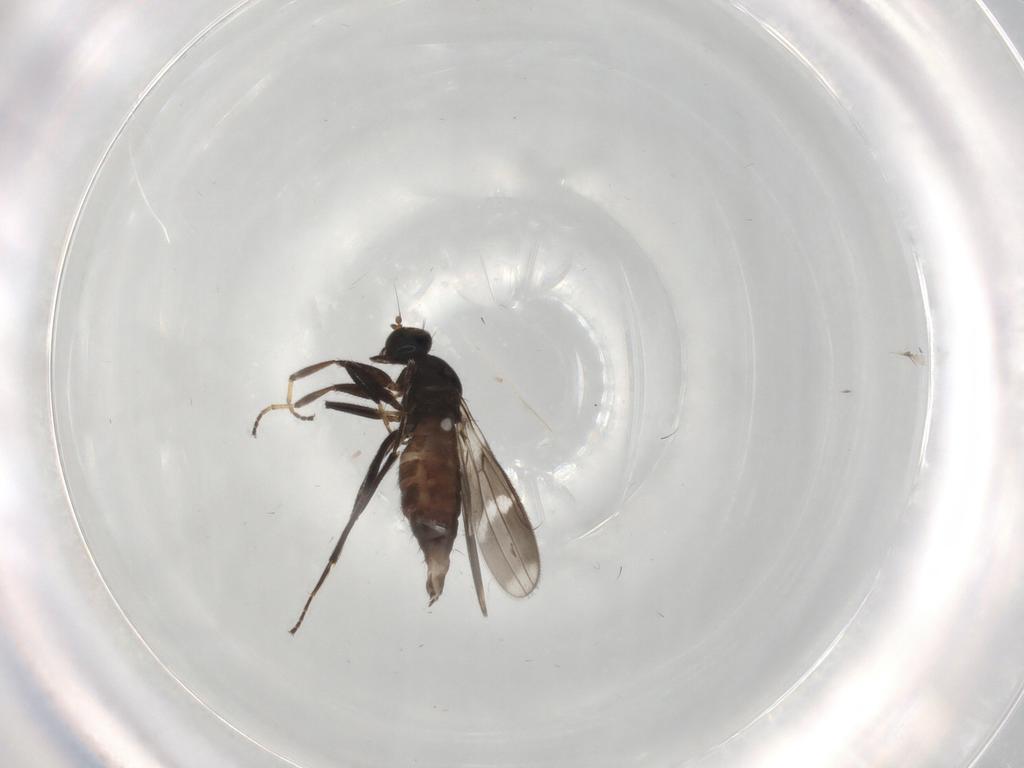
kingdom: Animalia
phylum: Arthropoda
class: Insecta
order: Diptera
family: Hybotidae
